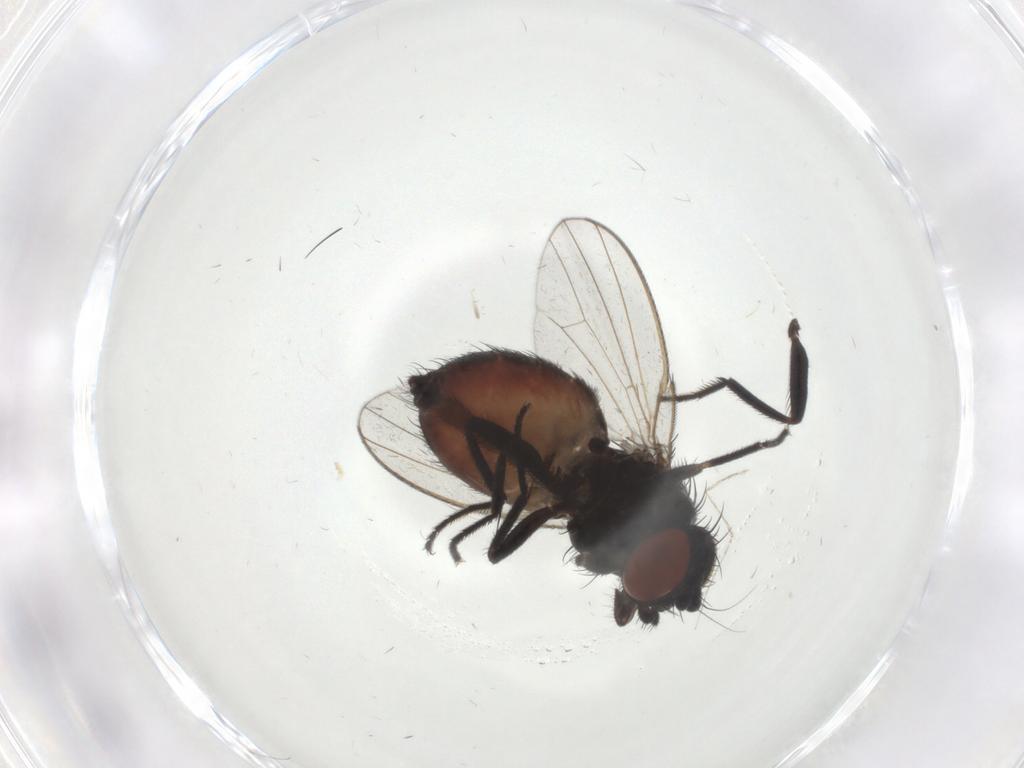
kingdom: Animalia
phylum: Arthropoda
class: Insecta
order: Diptera
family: Milichiidae
